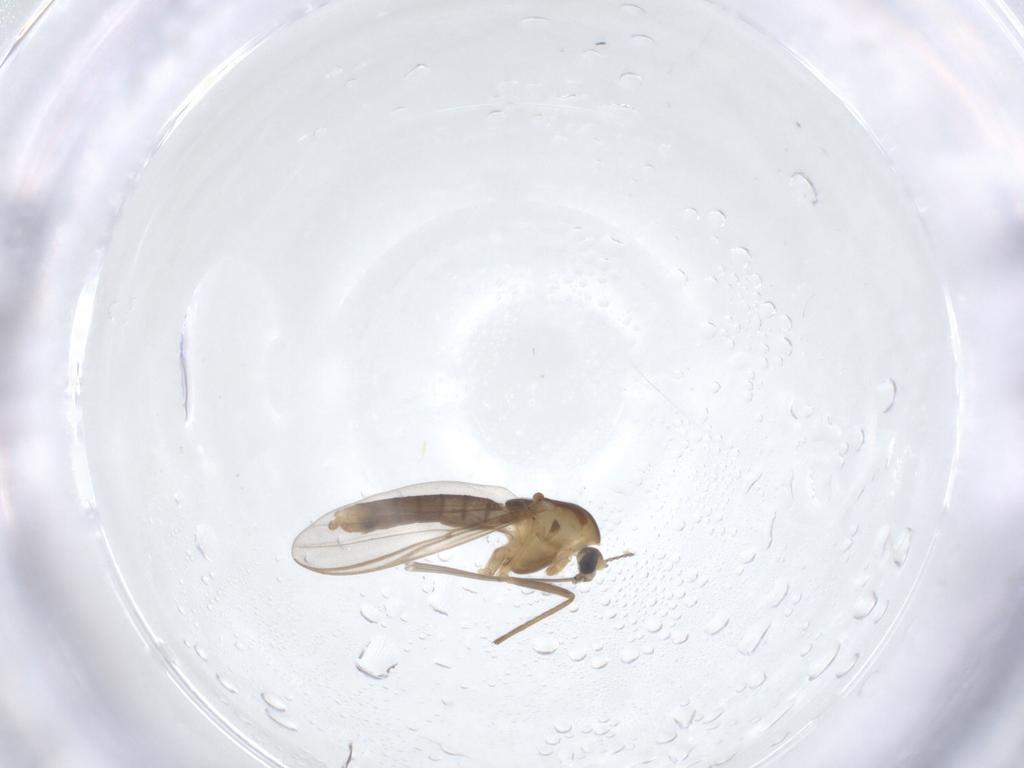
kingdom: Animalia
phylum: Arthropoda
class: Insecta
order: Diptera
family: Chironomidae
